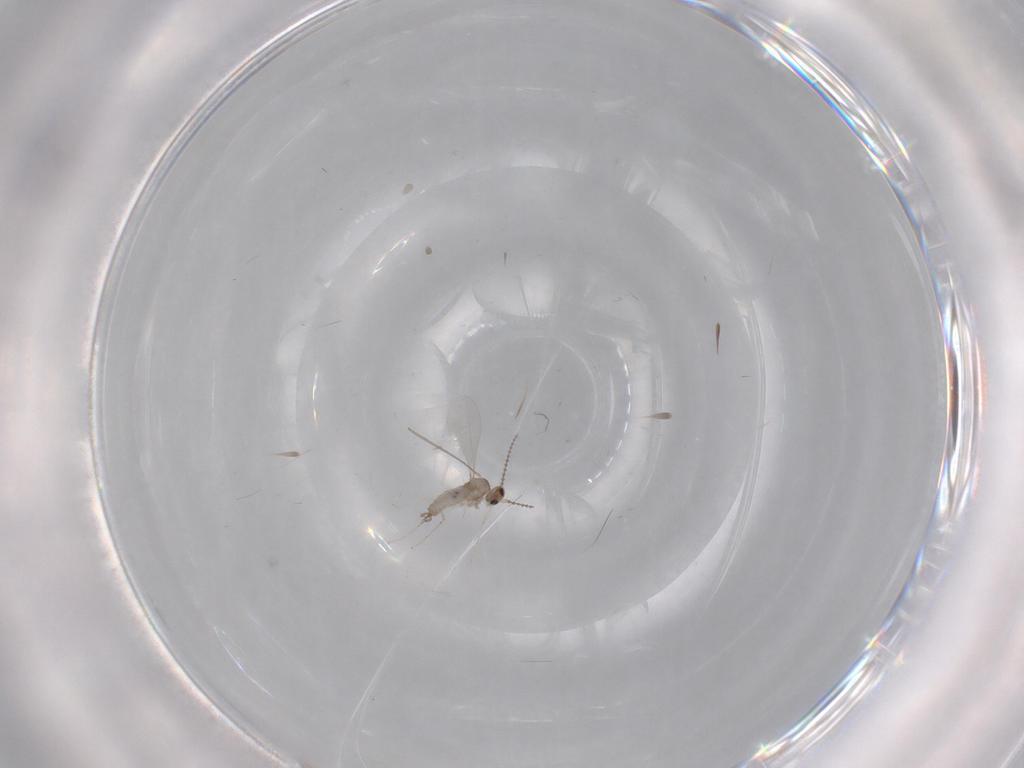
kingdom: Animalia
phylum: Arthropoda
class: Insecta
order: Diptera
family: Cecidomyiidae
